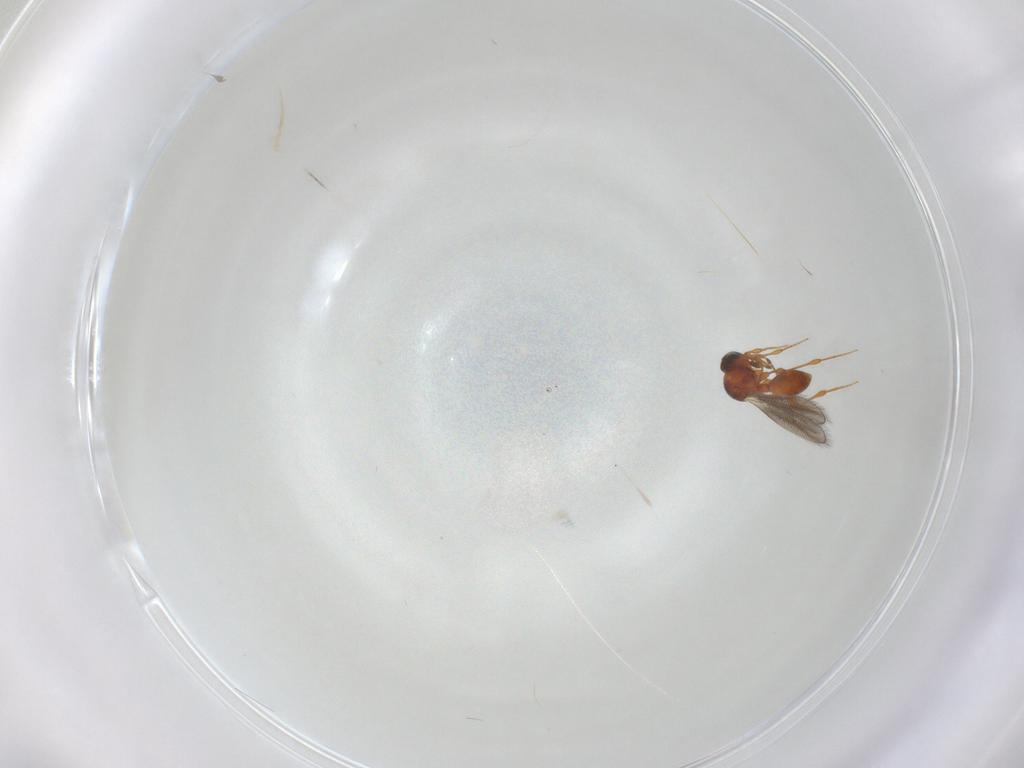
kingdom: Animalia
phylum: Arthropoda
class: Insecta
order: Hymenoptera
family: Platygastridae
